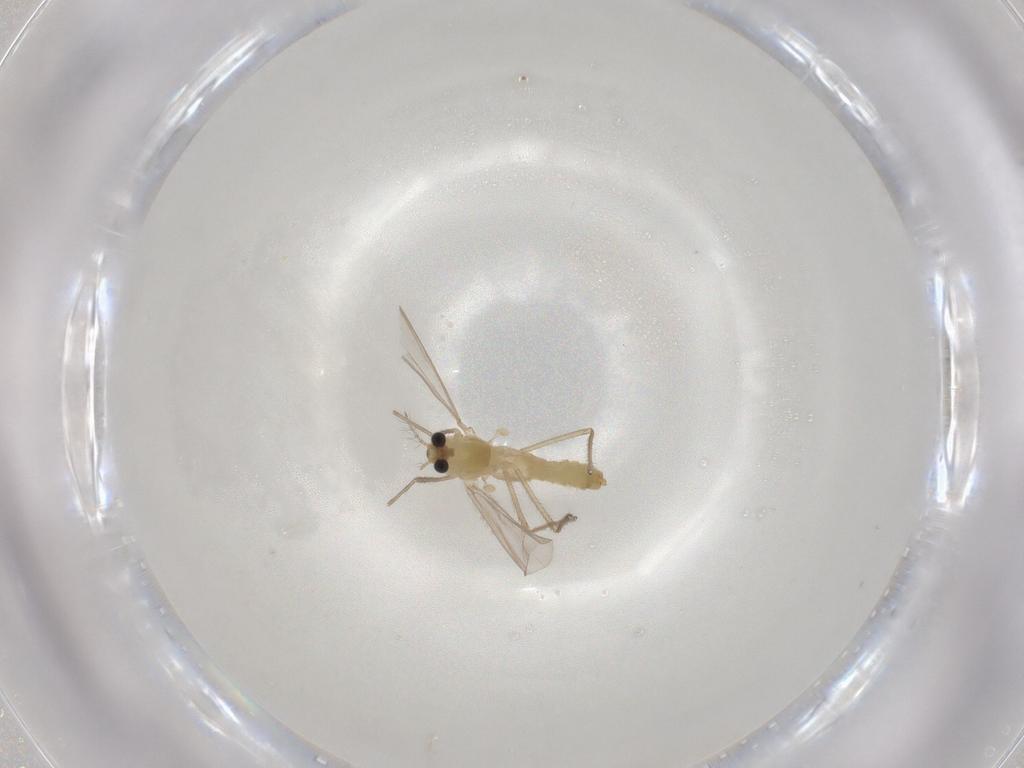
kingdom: Animalia
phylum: Arthropoda
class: Insecta
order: Diptera
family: Chironomidae
